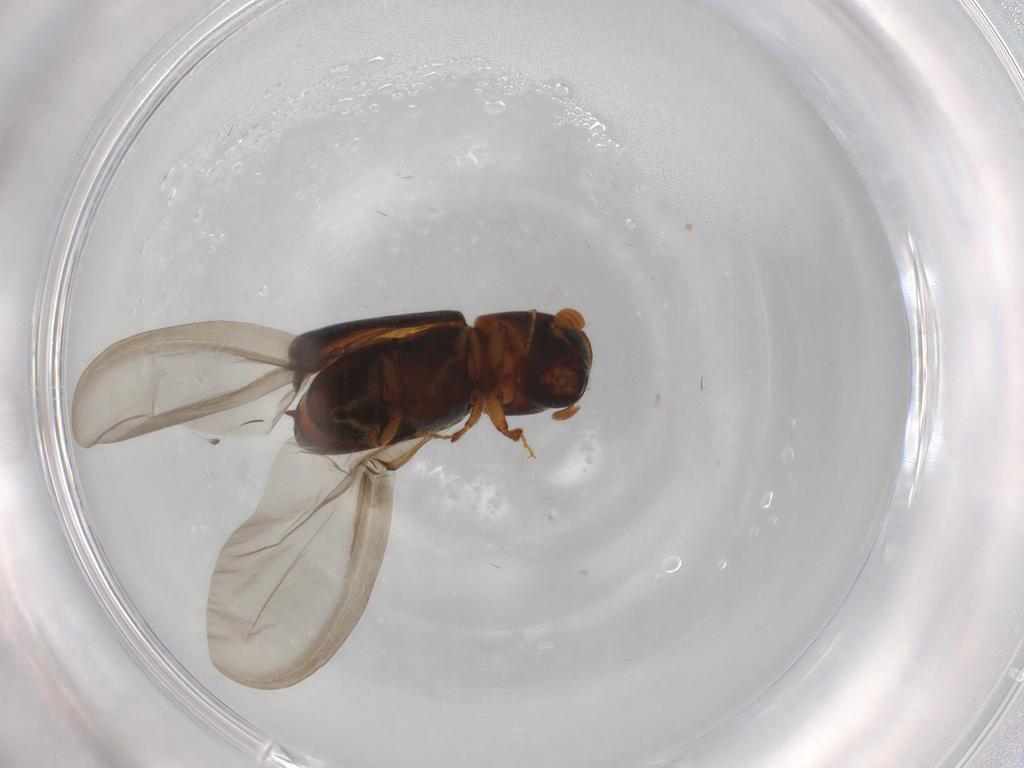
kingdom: Animalia
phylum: Arthropoda
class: Insecta
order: Coleoptera
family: Curculionidae
